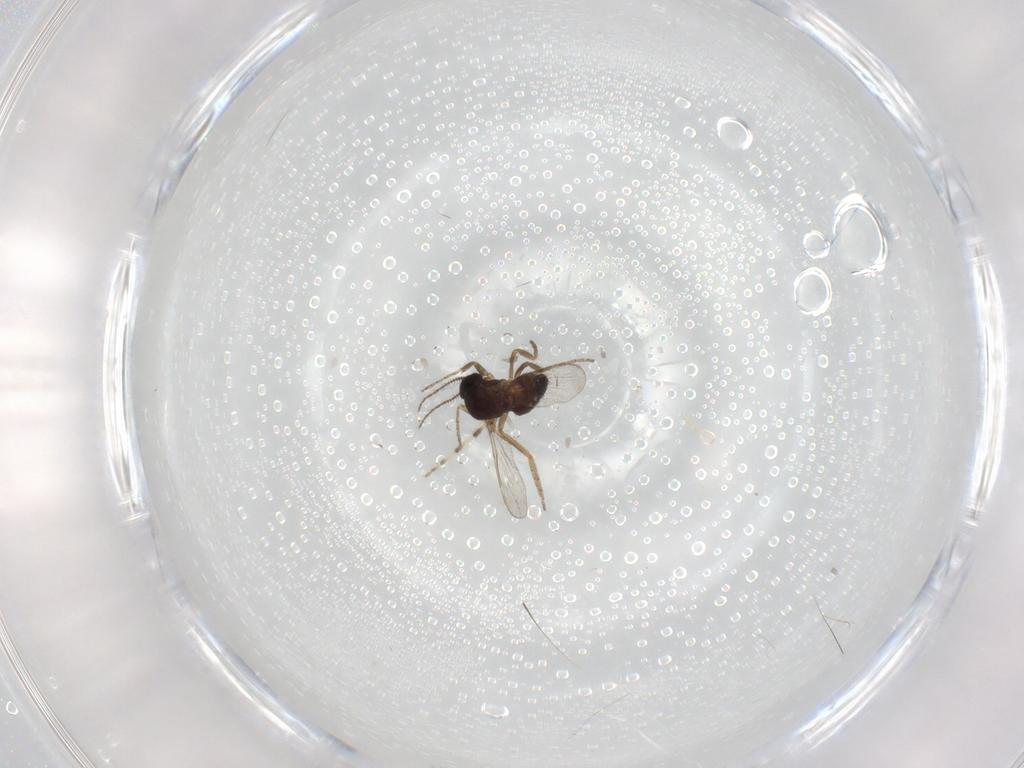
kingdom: Animalia
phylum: Arthropoda
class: Insecta
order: Diptera
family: Ceratopogonidae
